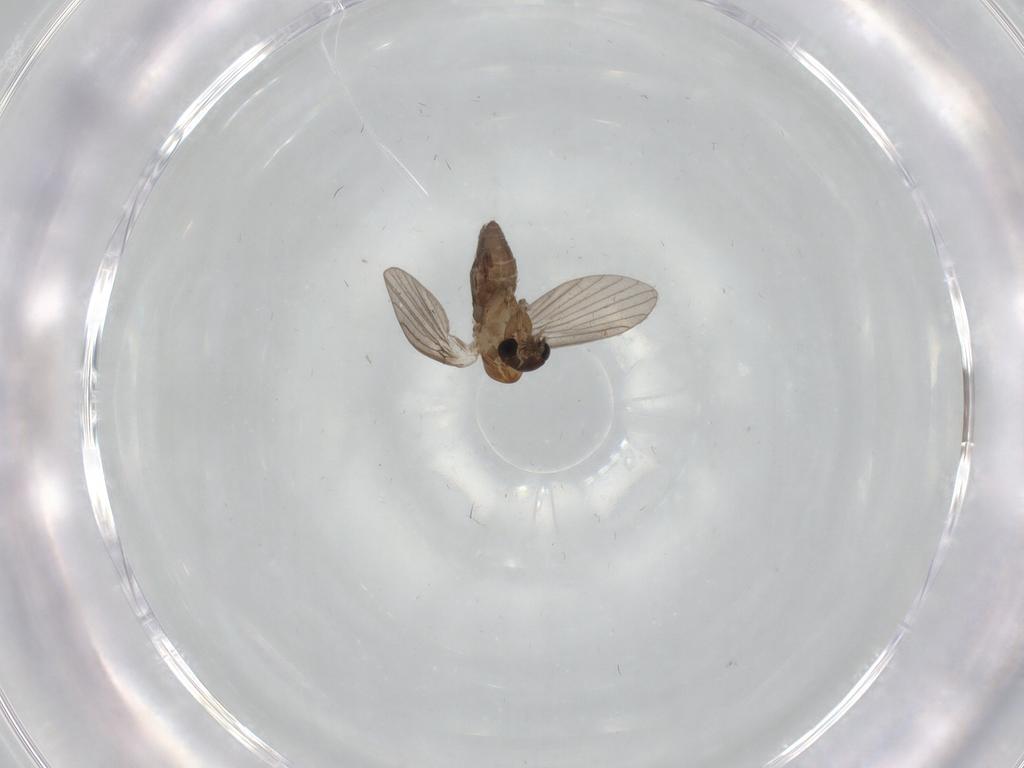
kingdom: Animalia
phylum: Arthropoda
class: Insecta
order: Diptera
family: Psychodidae
